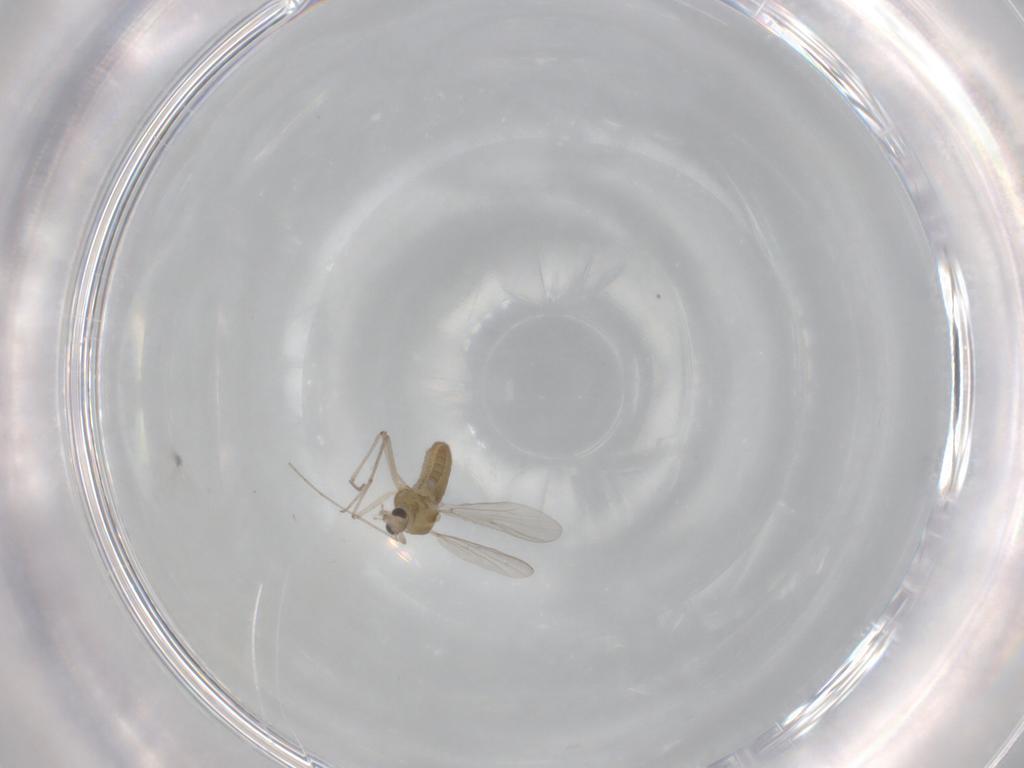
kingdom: Animalia
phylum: Arthropoda
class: Insecta
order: Diptera
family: Chironomidae
